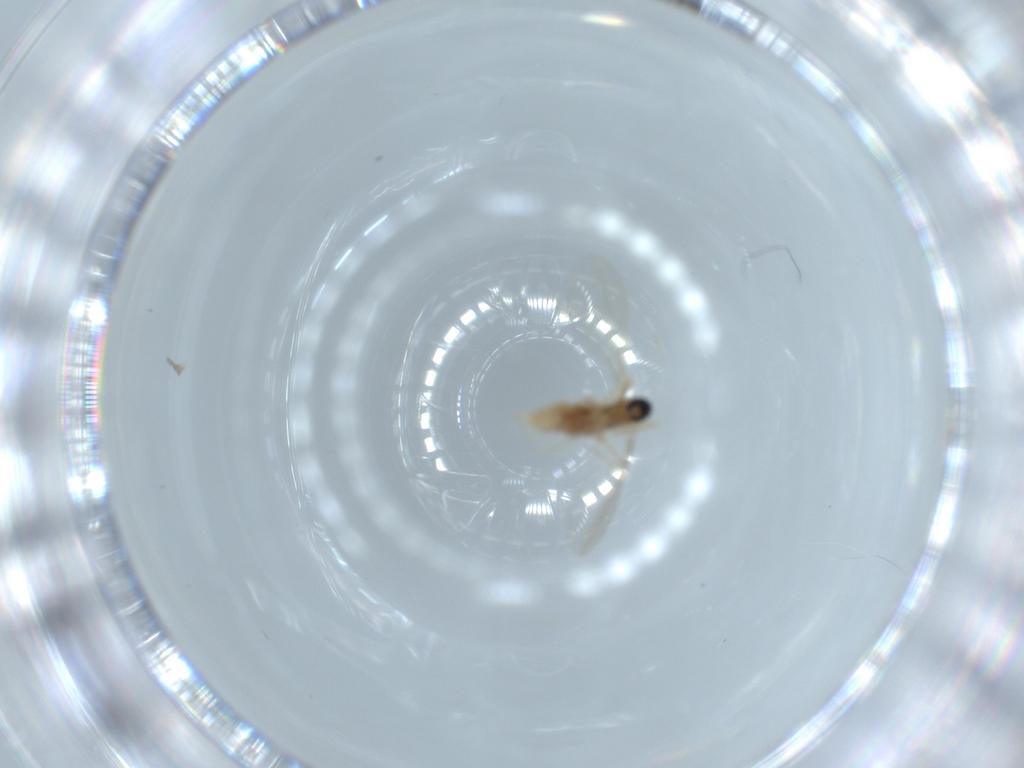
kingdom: Animalia
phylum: Arthropoda
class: Insecta
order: Diptera
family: Cecidomyiidae
